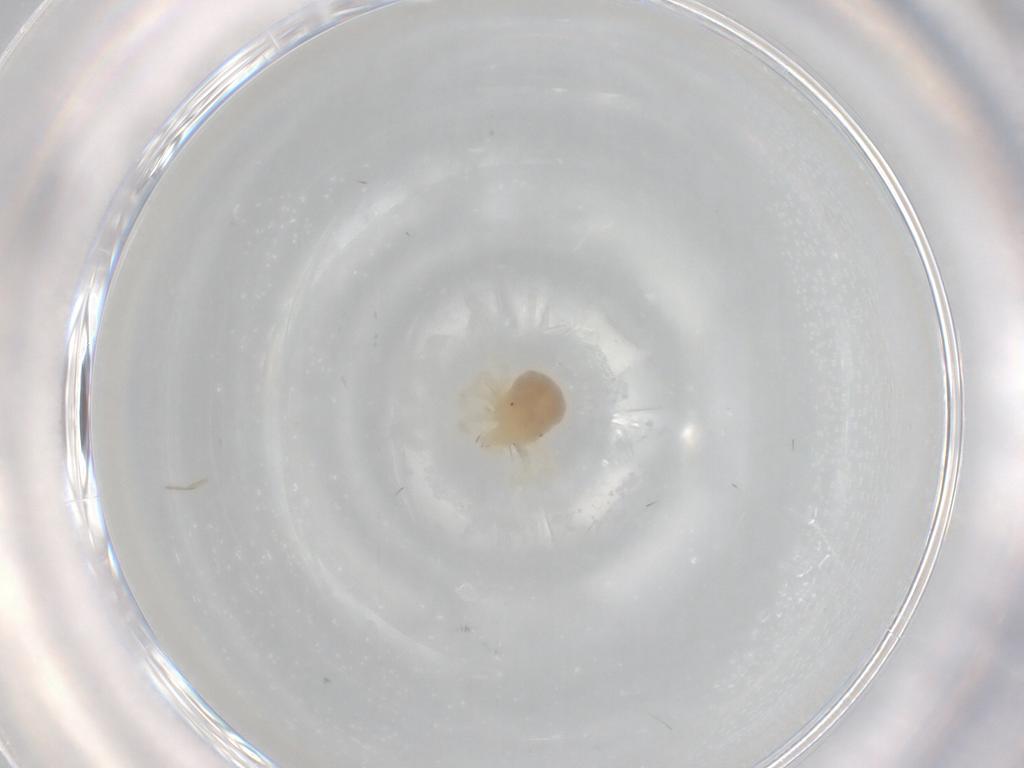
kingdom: Animalia
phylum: Arthropoda
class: Arachnida
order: Trombidiformes
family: Anystidae
